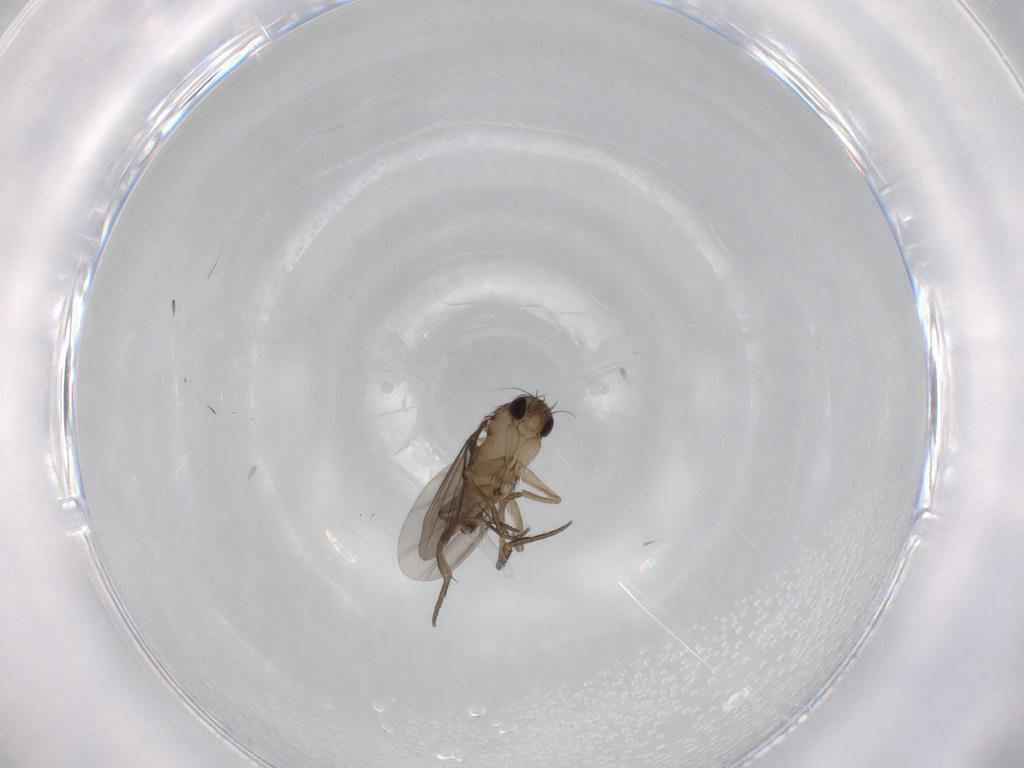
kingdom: Animalia
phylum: Arthropoda
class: Insecta
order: Diptera
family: Phoridae
